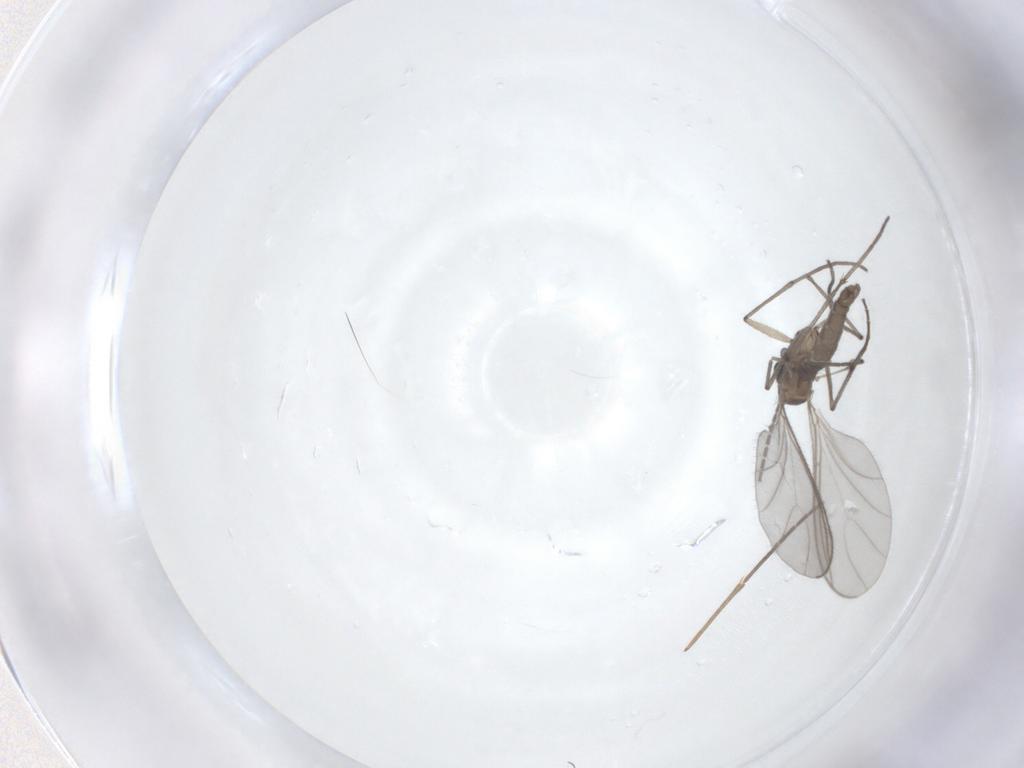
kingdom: Animalia
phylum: Arthropoda
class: Insecta
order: Diptera
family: Sciaridae
